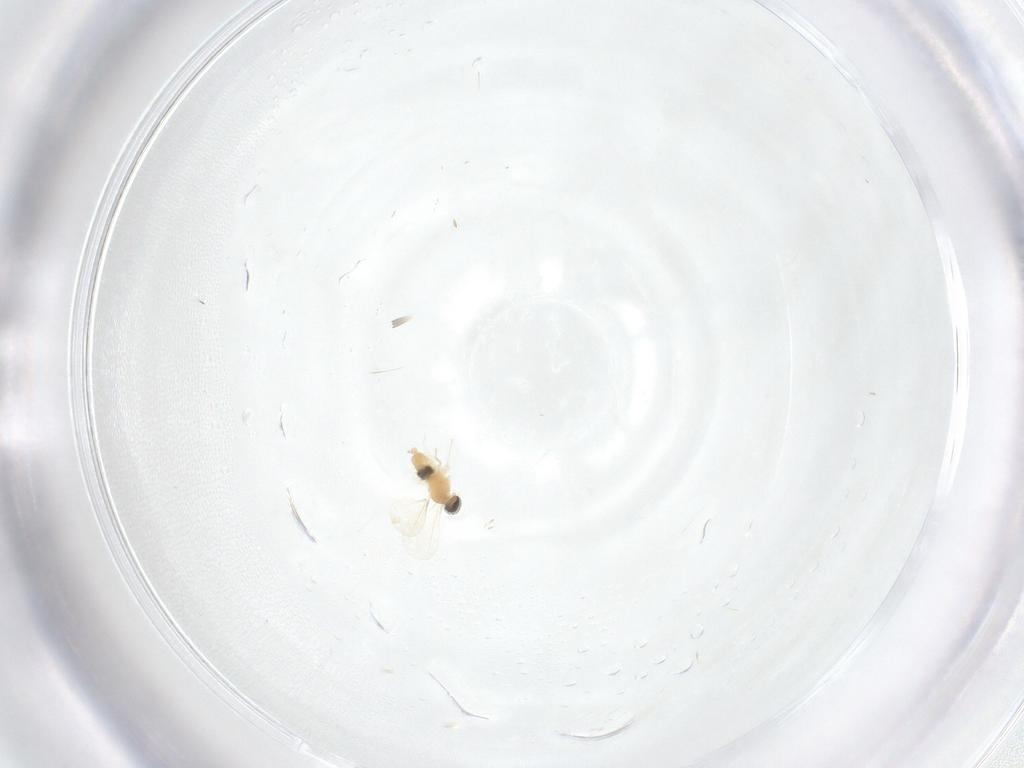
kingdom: Animalia
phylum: Arthropoda
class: Insecta
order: Diptera
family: Cecidomyiidae
